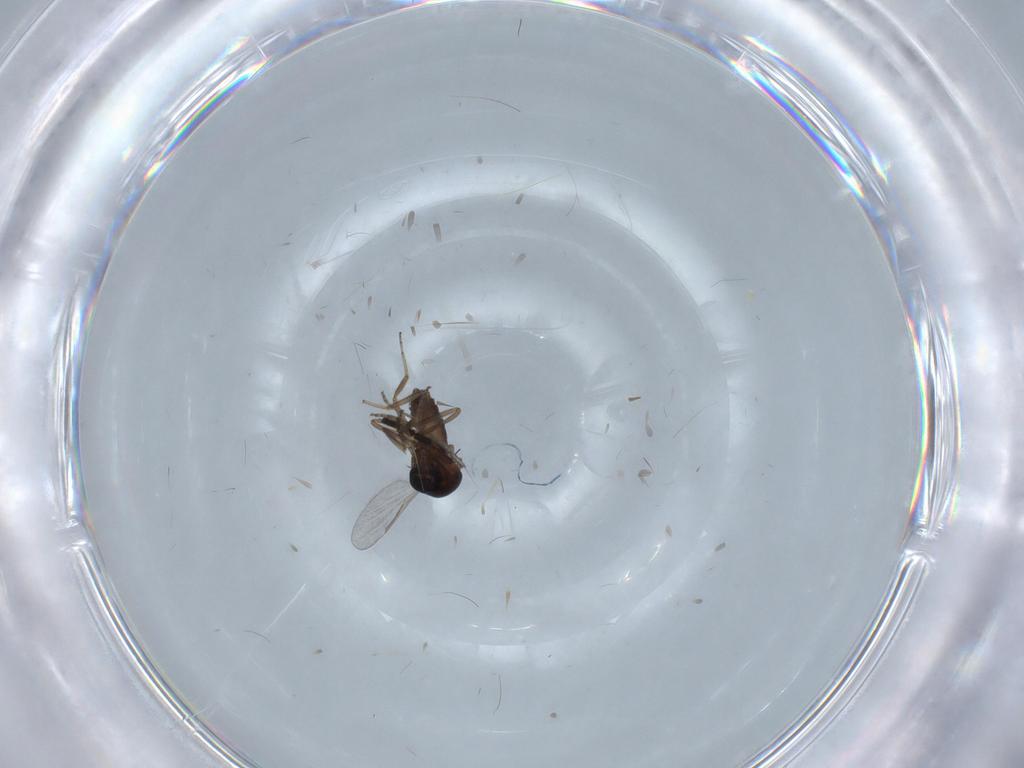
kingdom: Animalia
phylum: Arthropoda
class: Insecta
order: Diptera
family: Ceratopogonidae
